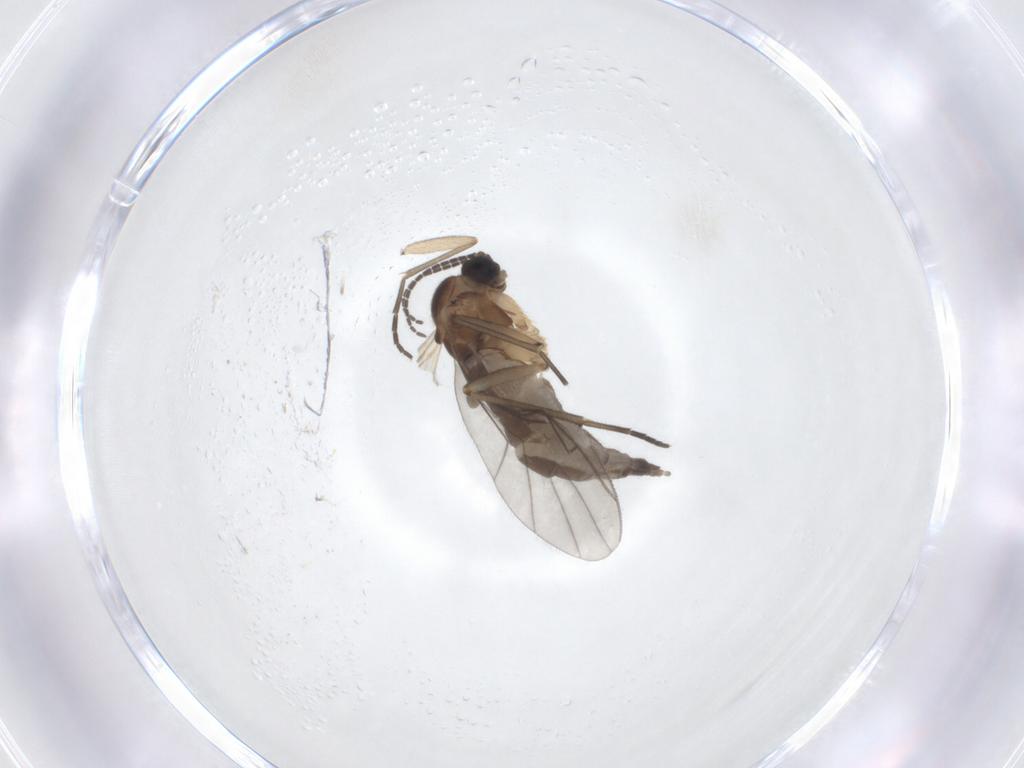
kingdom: Animalia
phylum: Arthropoda
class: Insecta
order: Diptera
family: Sciaridae
